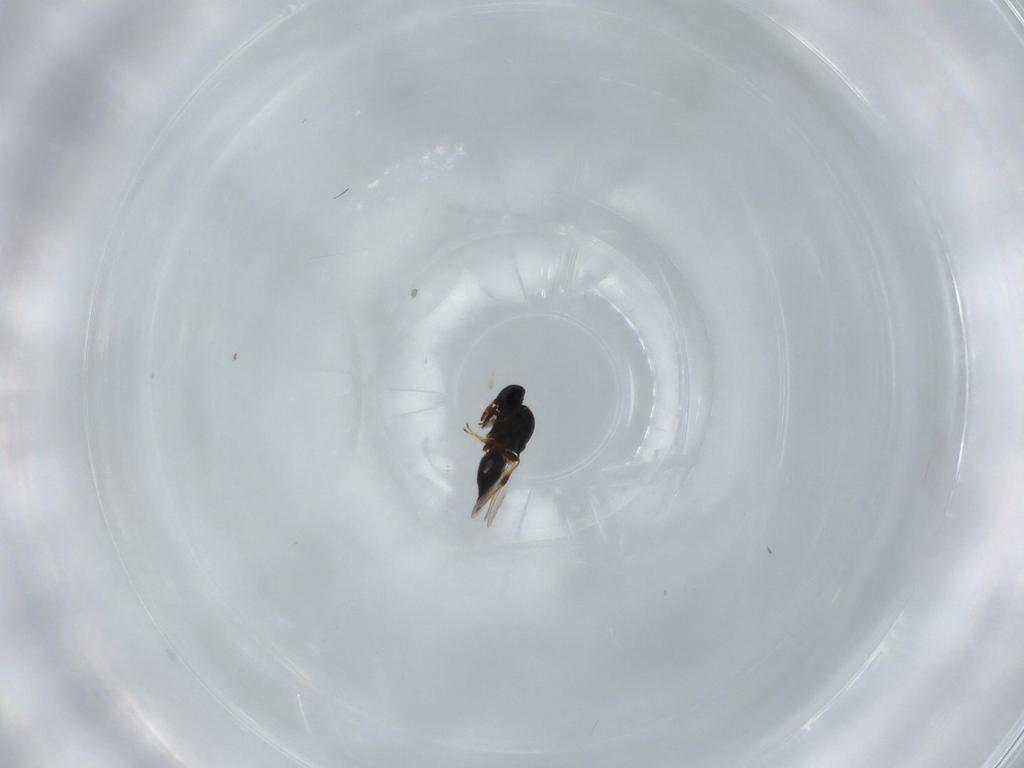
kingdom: Animalia
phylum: Arthropoda
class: Insecta
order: Hymenoptera
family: Platygastridae
